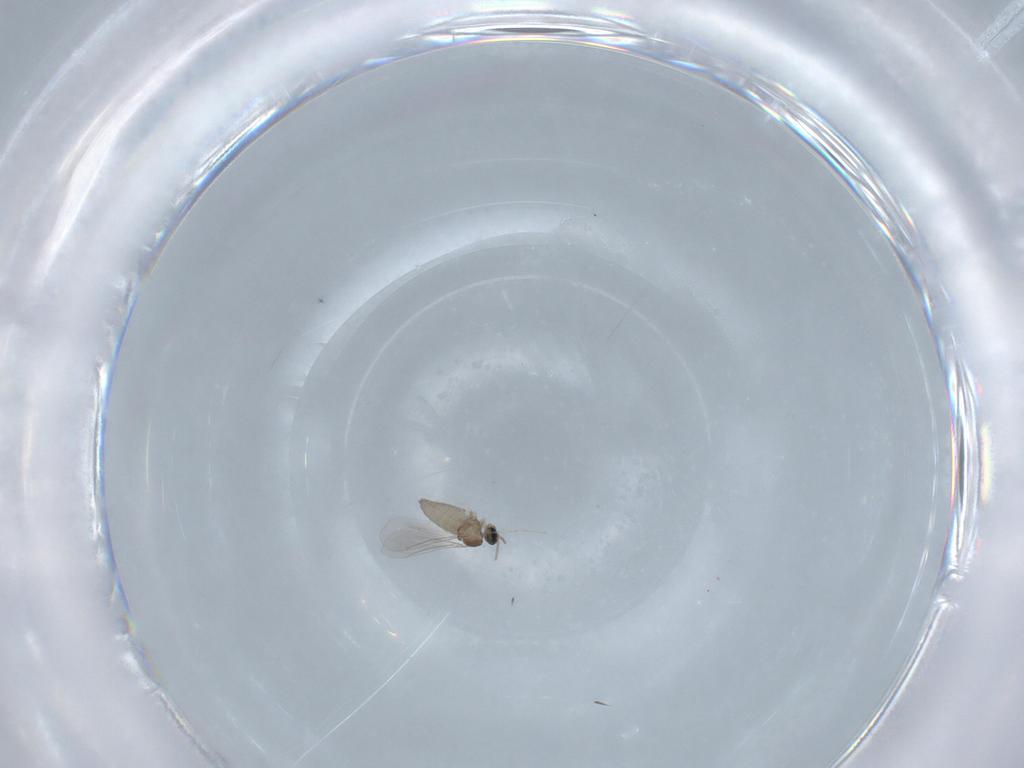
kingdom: Animalia
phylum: Arthropoda
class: Insecta
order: Diptera
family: Cecidomyiidae
